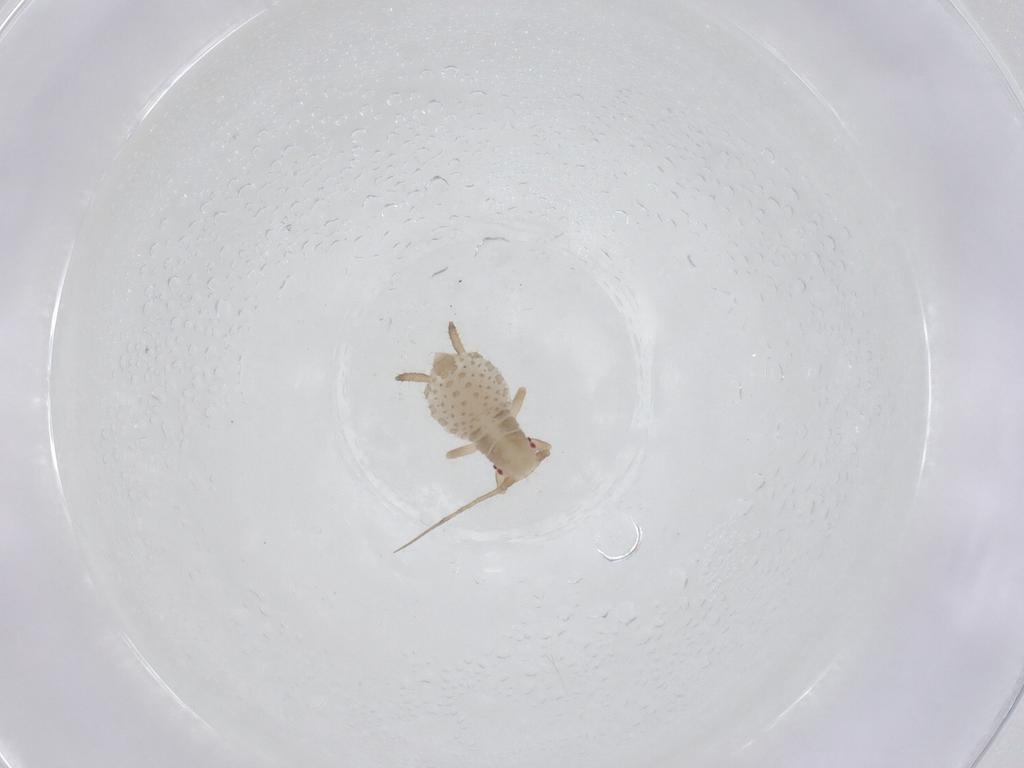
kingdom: Animalia
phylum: Arthropoda
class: Insecta
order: Hemiptera
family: Aphididae
